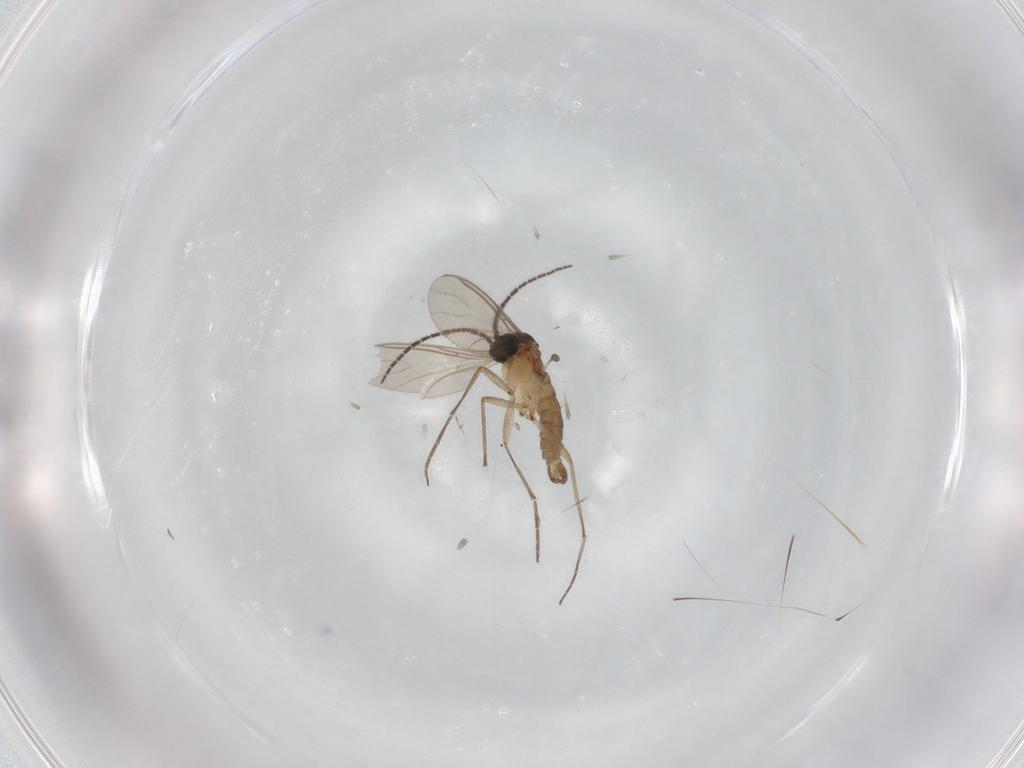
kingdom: Animalia
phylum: Arthropoda
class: Insecta
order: Diptera
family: Sciaridae
